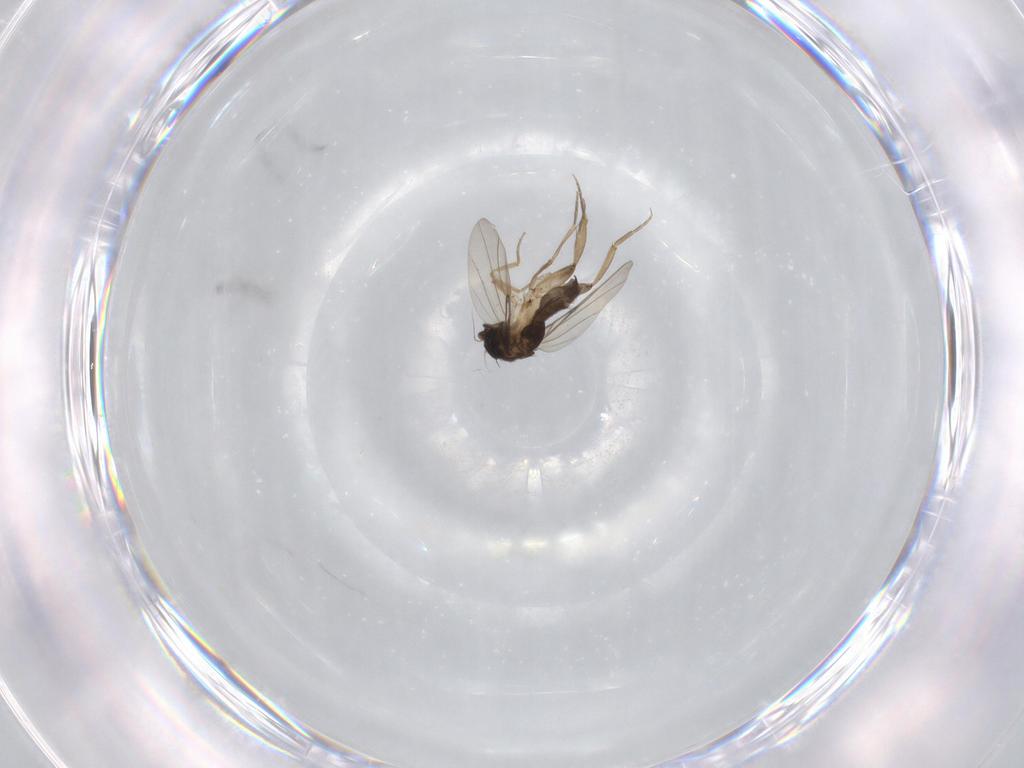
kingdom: Animalia
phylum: Arthropoda
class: Insecta
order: Diptera
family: Phoridae
